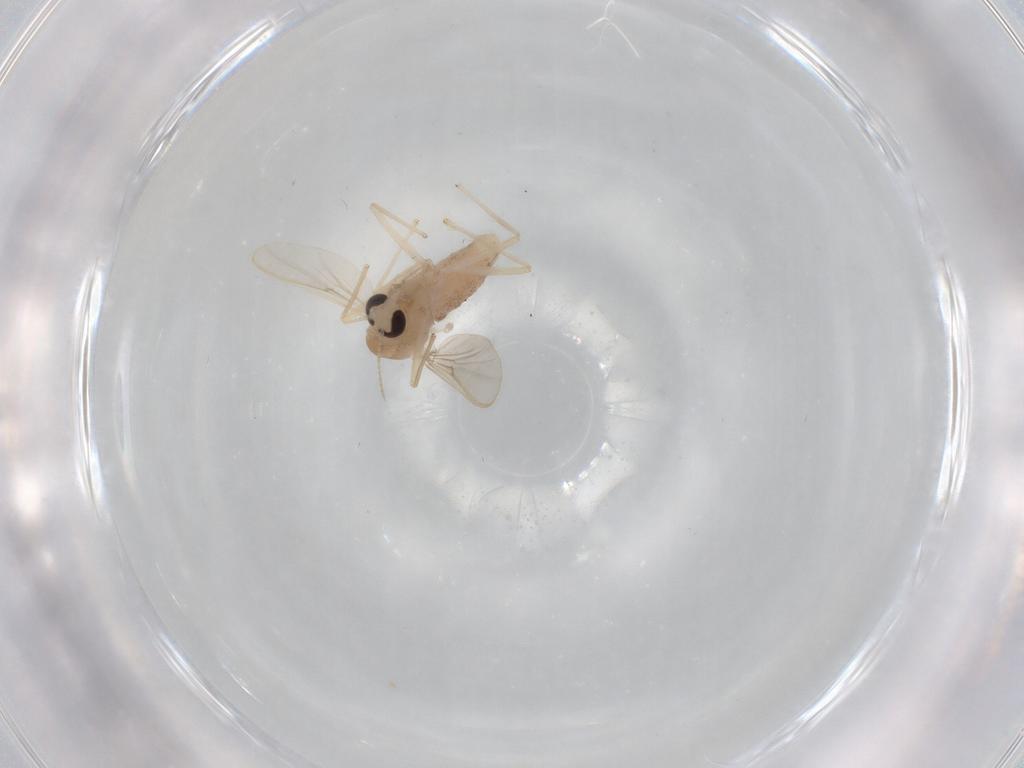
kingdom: Animalia
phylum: Arthropoda
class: Insecta
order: Diptera
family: Chironomidae
